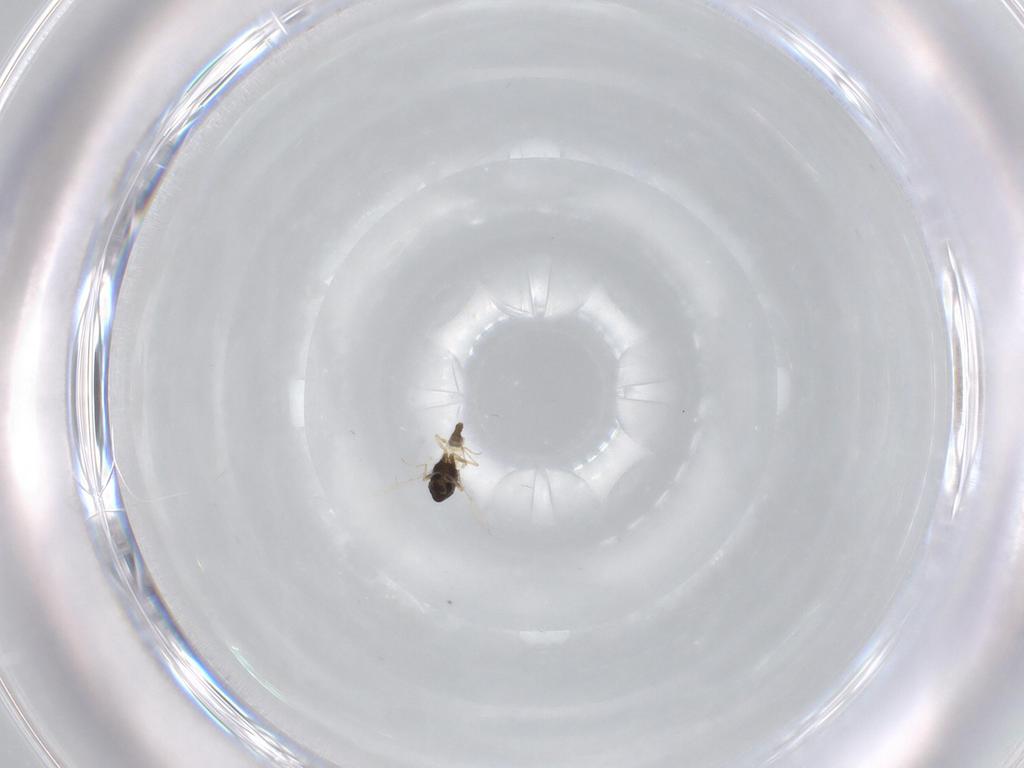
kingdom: Animalia
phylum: Arthropoda
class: Insecta
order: Diptera
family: Chironomidae
